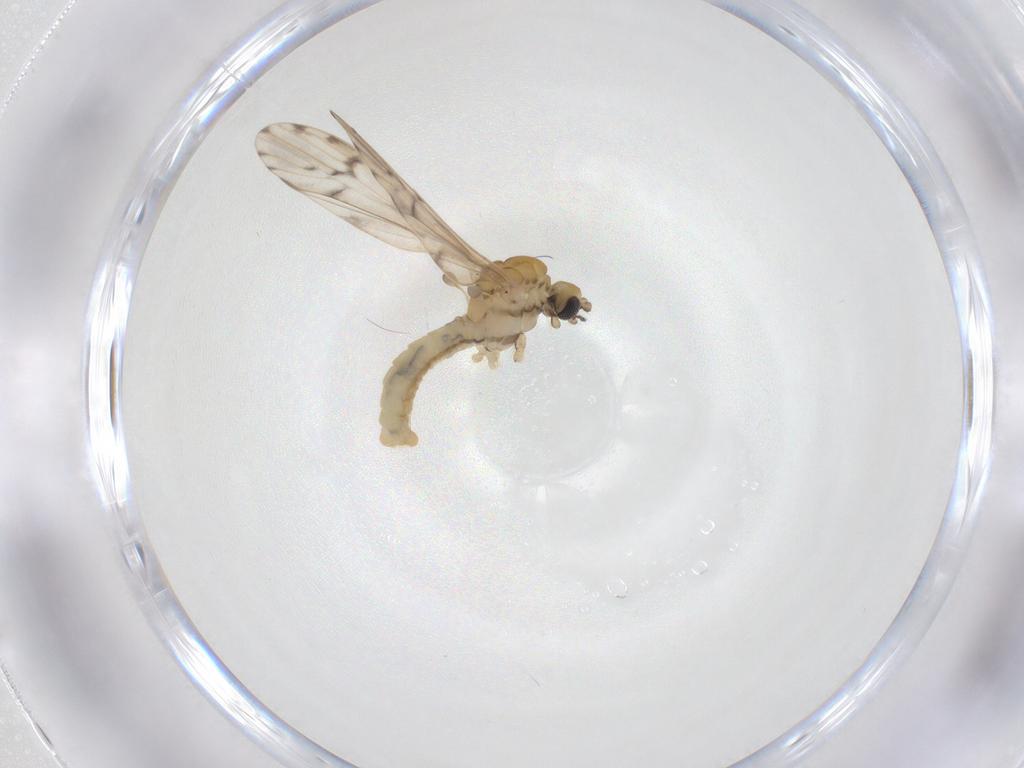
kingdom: Animalia
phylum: Arthropoda
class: Insecta
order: Diptera
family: Limoniidae
